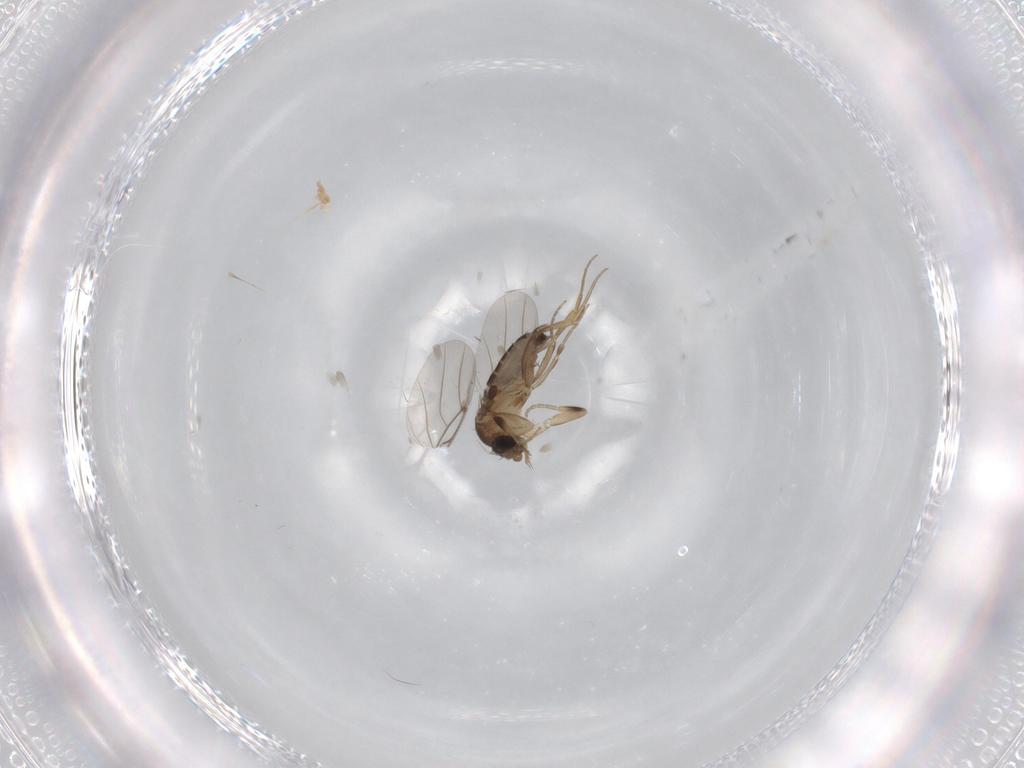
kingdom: Animalia
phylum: Arthropoda
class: Insecta
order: Diptera
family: Phoridae
